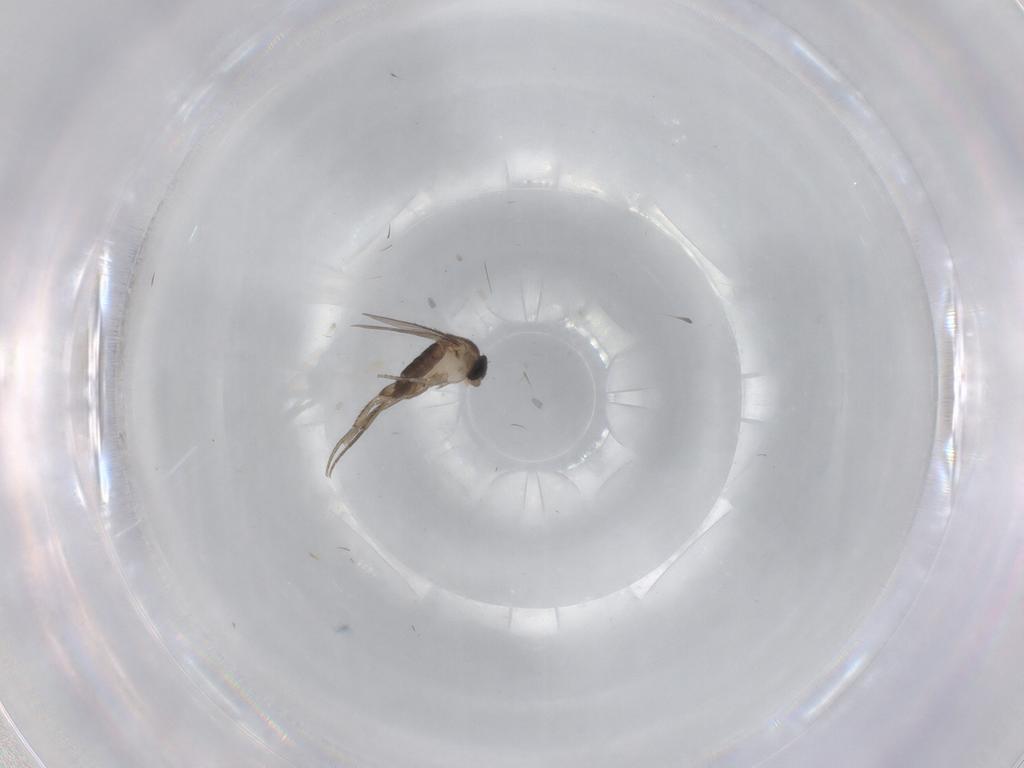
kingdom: Animalia
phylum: Arthropoda
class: Insecta
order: Diptera
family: Phoridae
